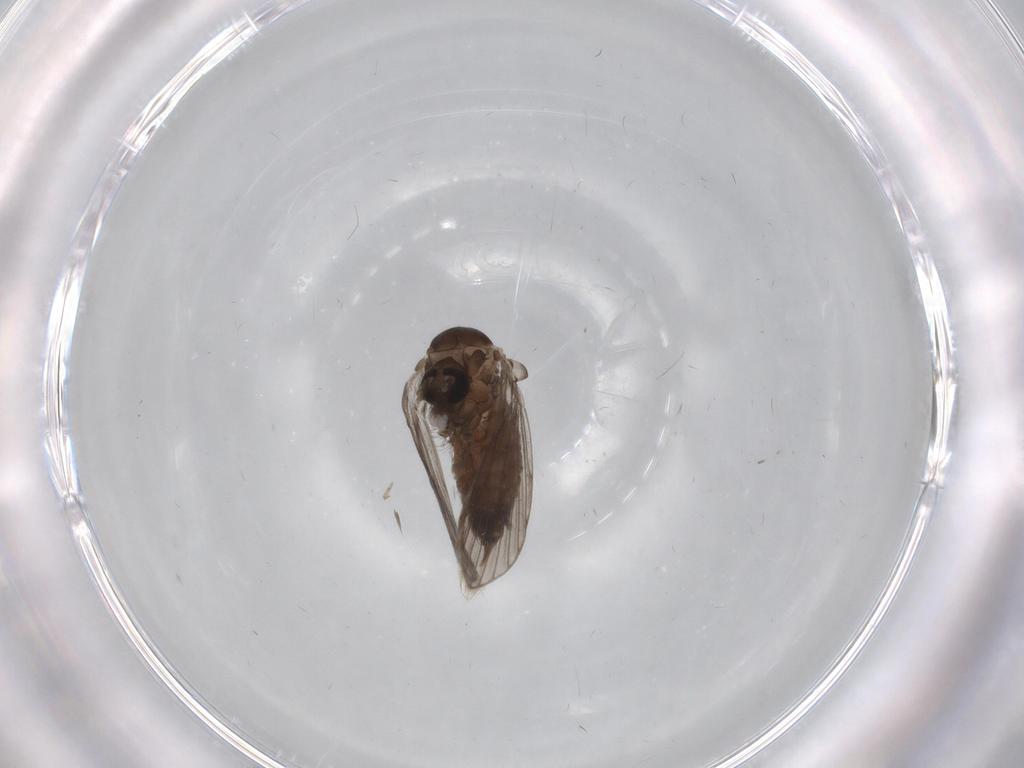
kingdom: Animalia
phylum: Arthropoda
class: Insecta
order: Diptera
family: Psychodidae
